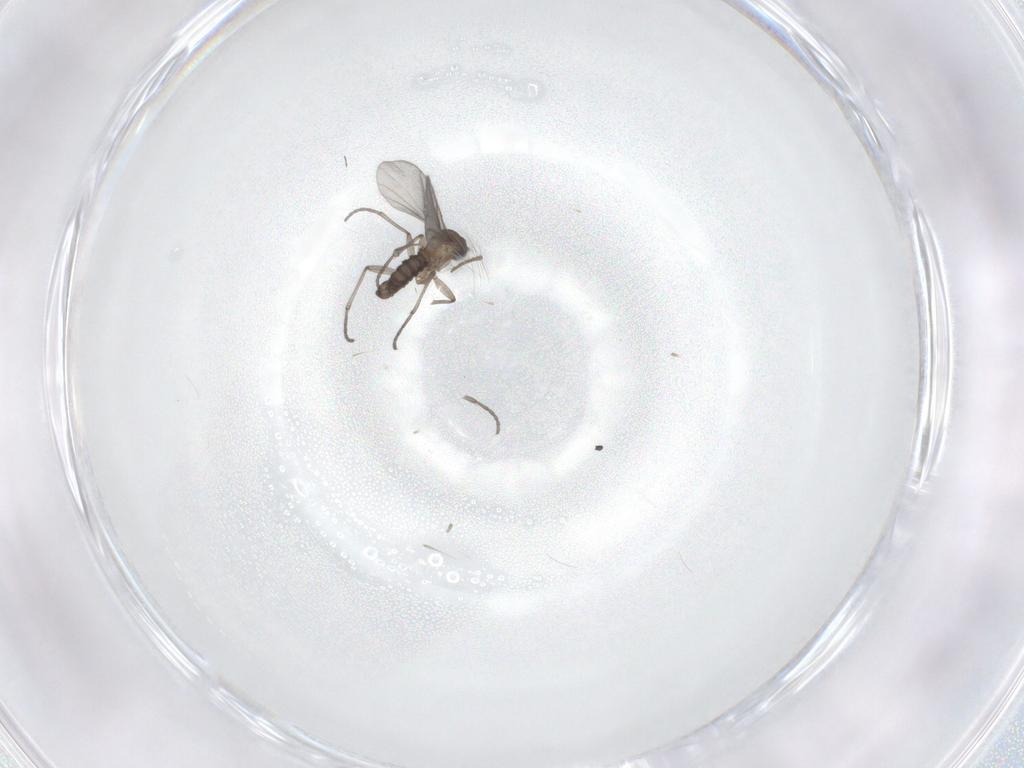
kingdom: Animalia
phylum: Arthropoda
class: Insecta
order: Diptera
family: Sciaridae
